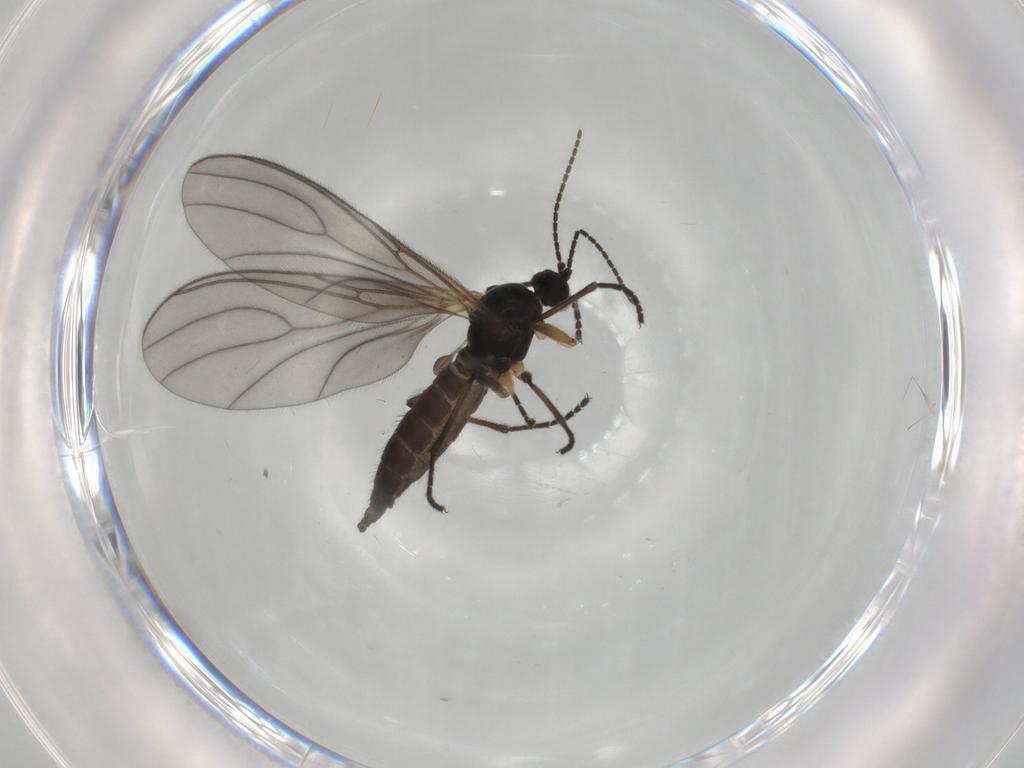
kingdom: Animalia
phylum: Arthropoda
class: Insecta
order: Diptera
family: Sciaridae
